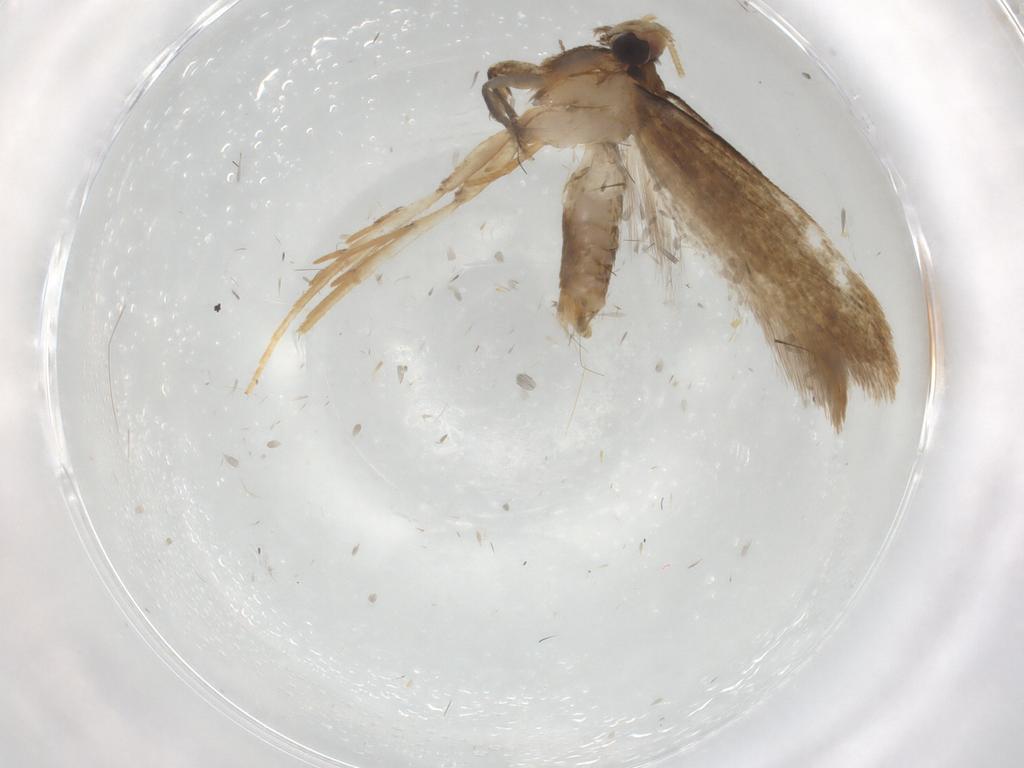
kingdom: Animalia
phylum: Arthropoda
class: Insecta
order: Lepidoptera
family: Coleophoridae
